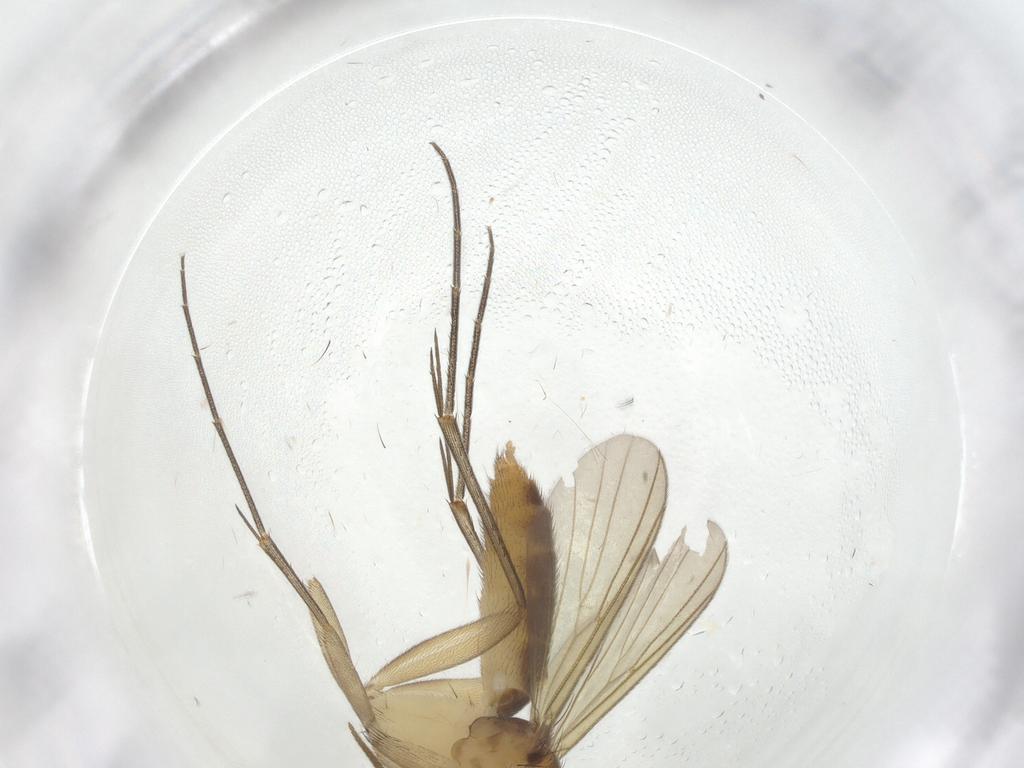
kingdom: Animalia
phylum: Arthropoda
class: Insecta
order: Diptera
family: Mycetophilidae
